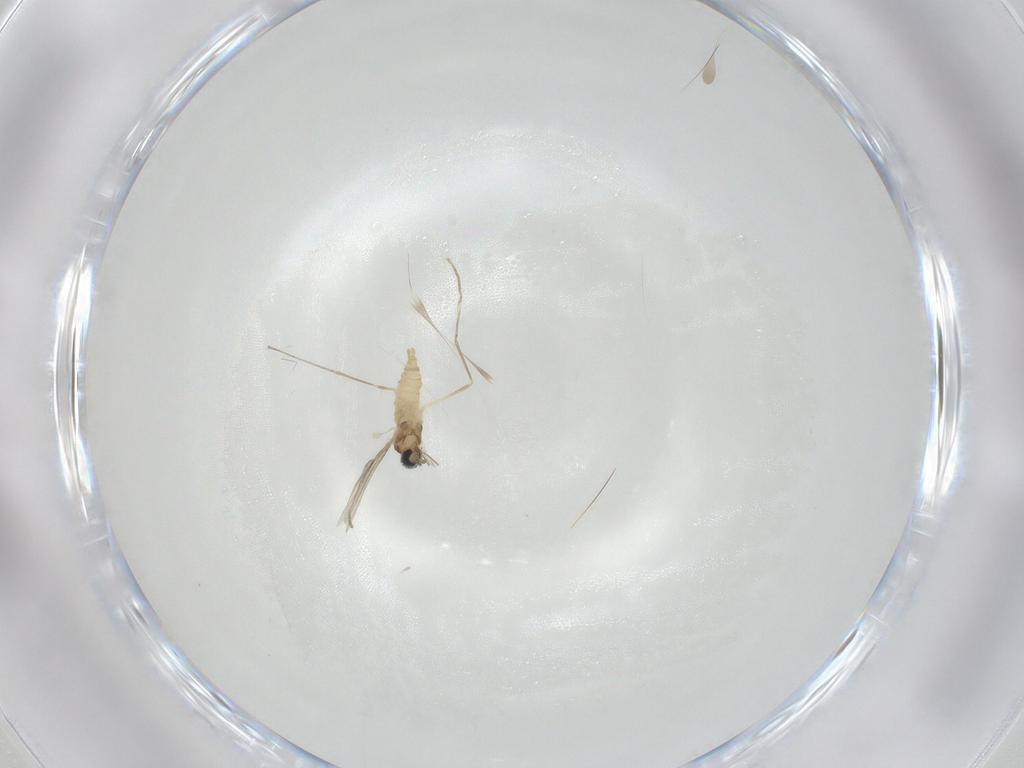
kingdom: Animalia
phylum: Arthropoda
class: Insecta
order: Diptera
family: Cecidomyiidae
